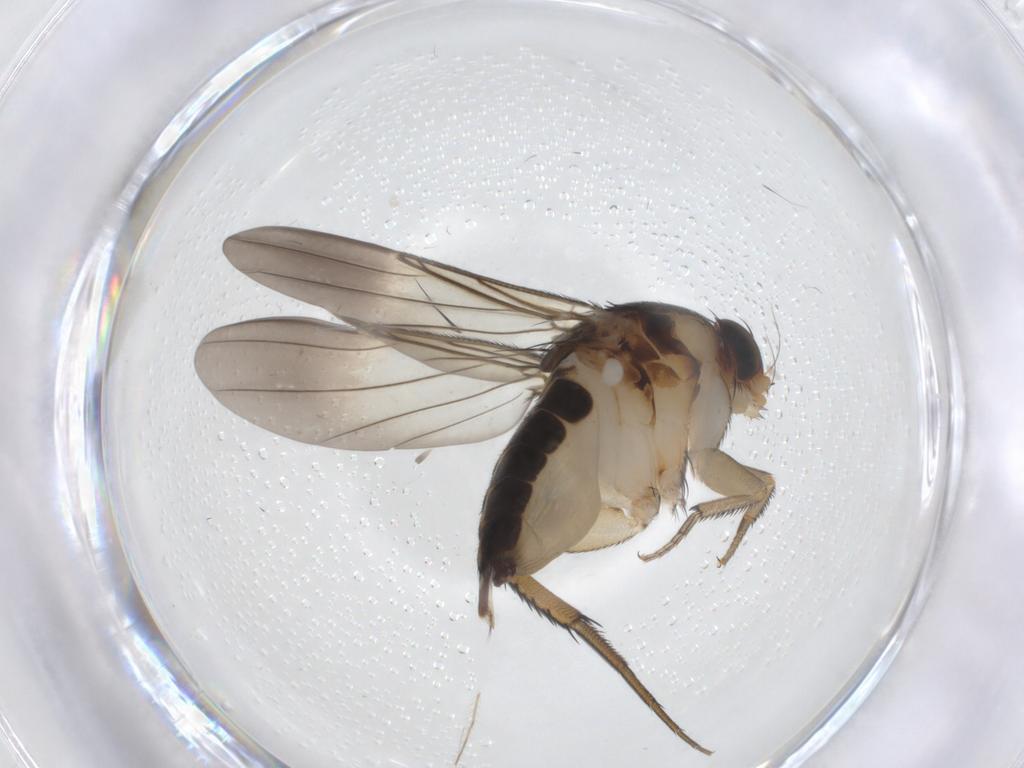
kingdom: Animalia
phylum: Arthropoda
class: Insecta
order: Diptera
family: Phoridae
